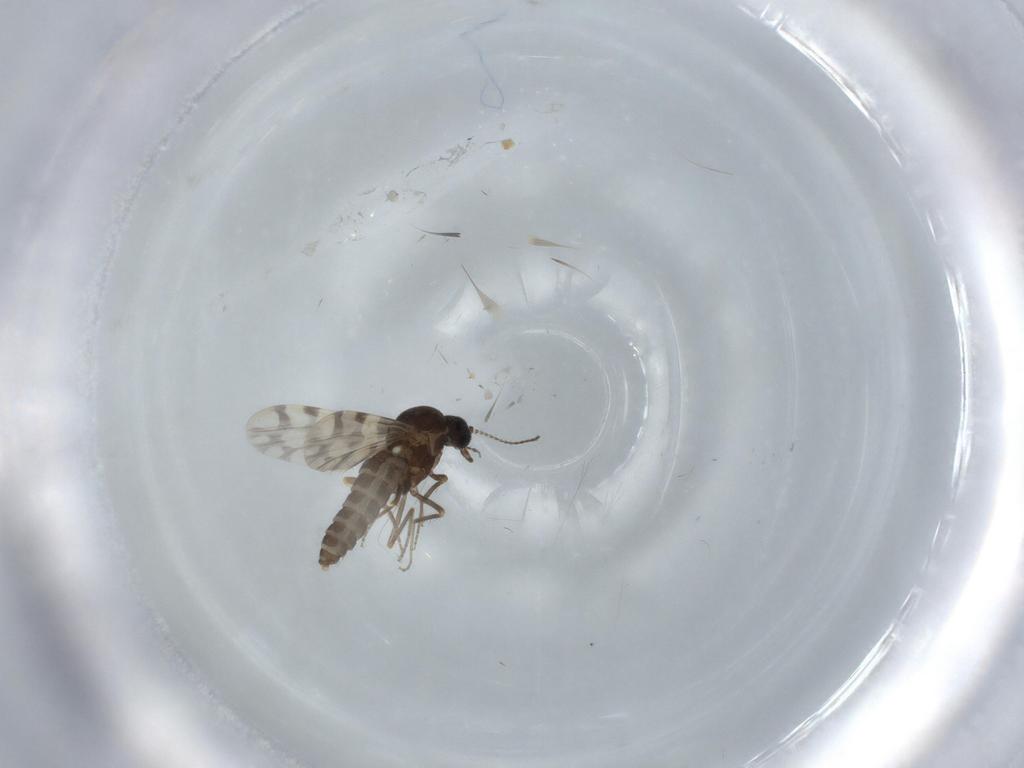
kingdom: Animalia
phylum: Arthropoda
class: Insecta
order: Diptera
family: Ceratopogonidae
